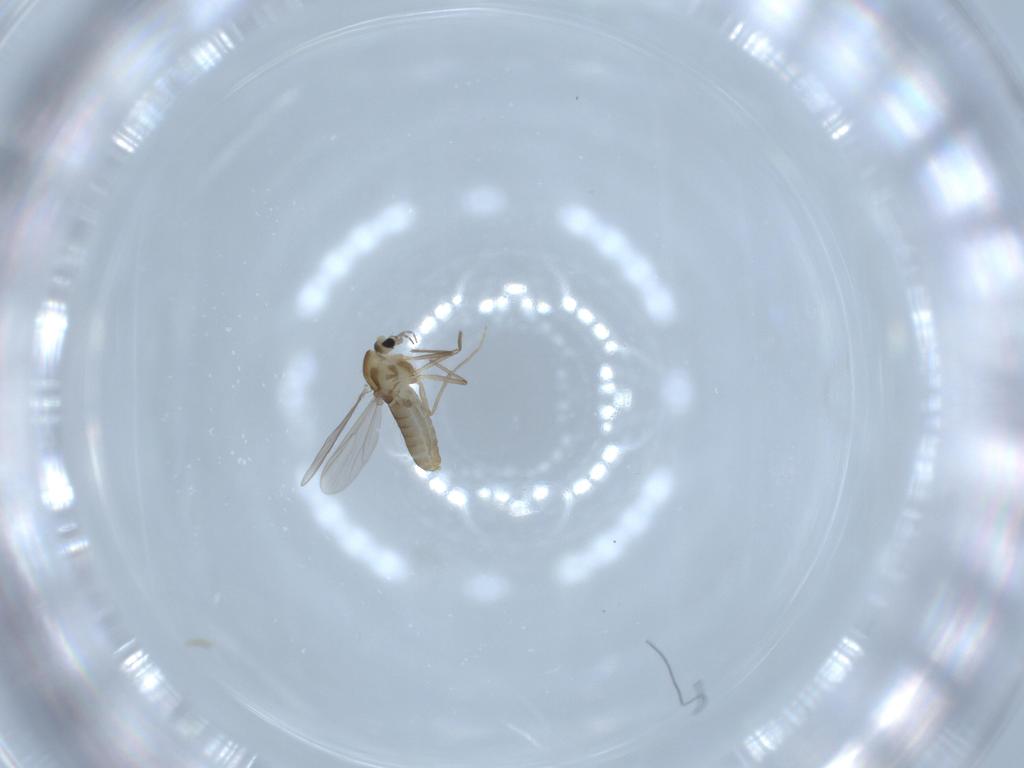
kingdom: Animalia
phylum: Arthropoda
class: Insecta
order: Diptera
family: Chironomidae
